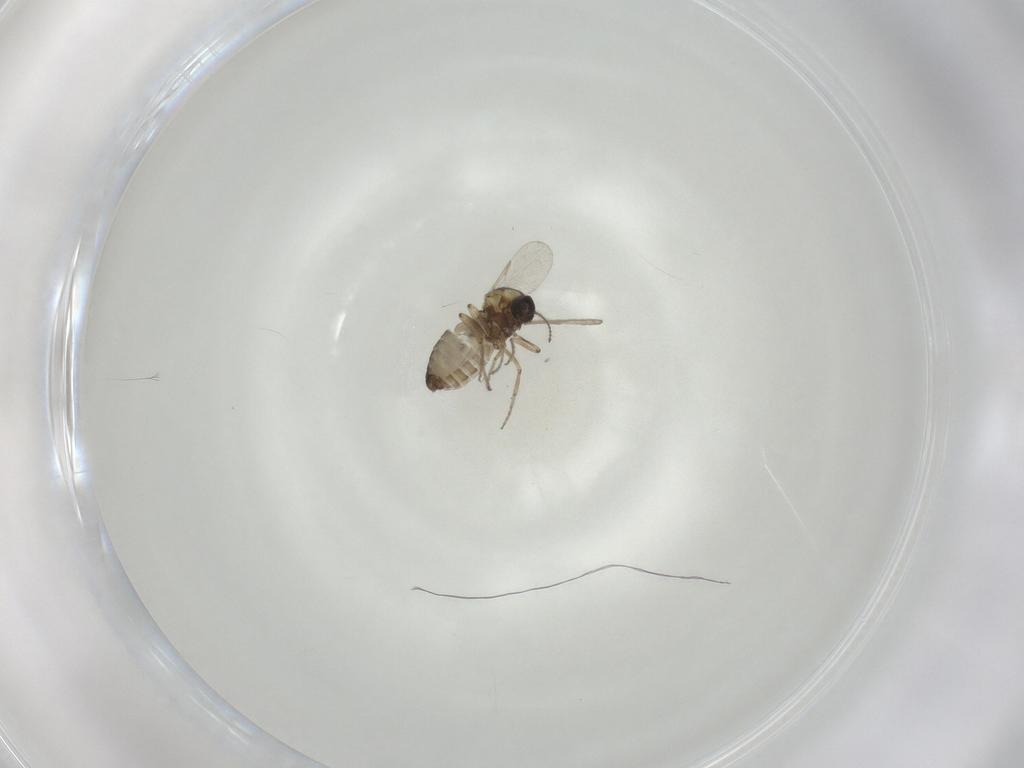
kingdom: Animalia
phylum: Arthropoda
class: Insecta
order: Diptera
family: Ceratopogonidae
